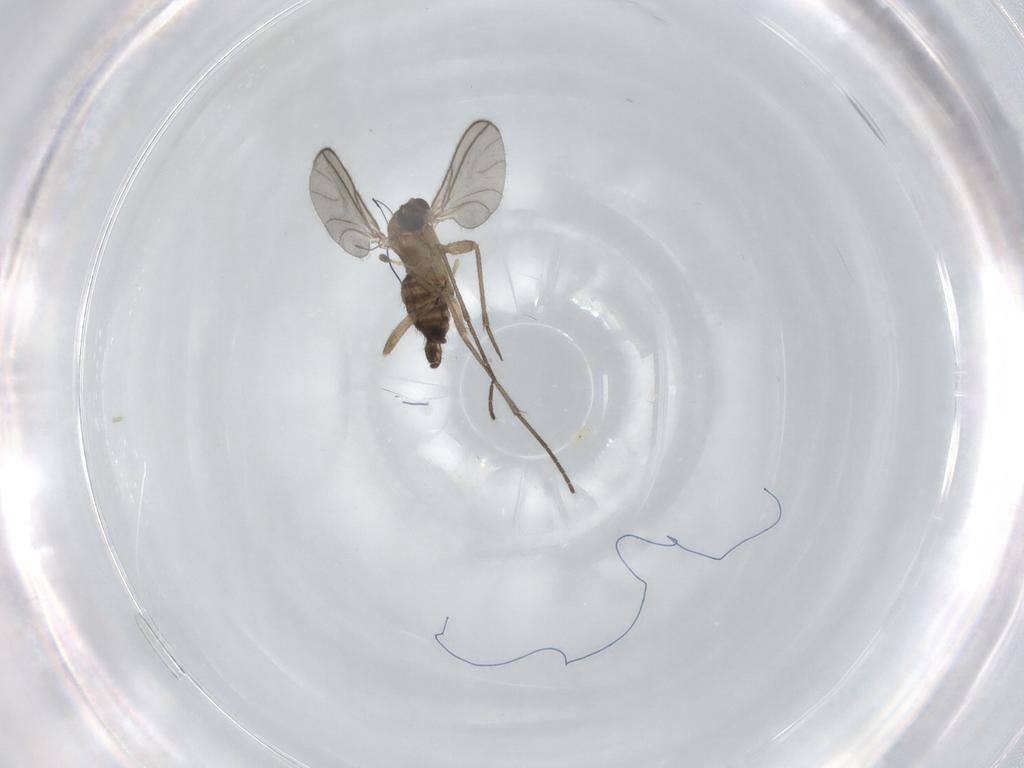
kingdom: Animalia
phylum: Arthropoda
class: Insecta
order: Diptera
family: Sciaridae
